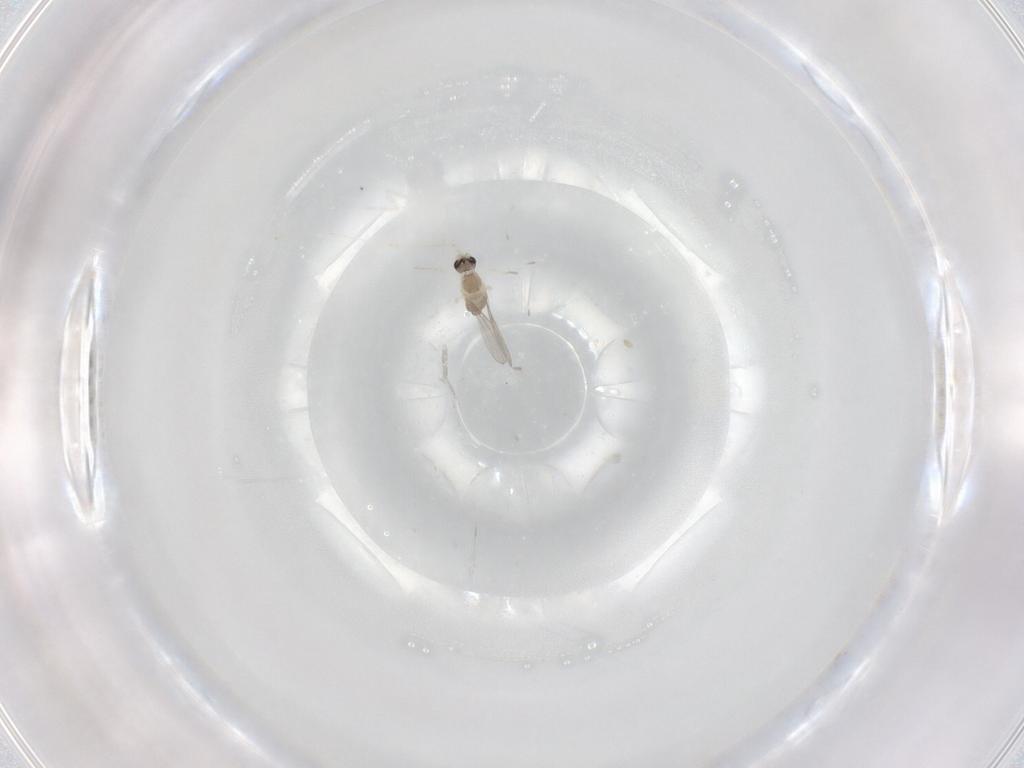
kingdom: Animalia
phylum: Arthropoda
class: Insecta
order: Diptera
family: Cecidomyiidae
